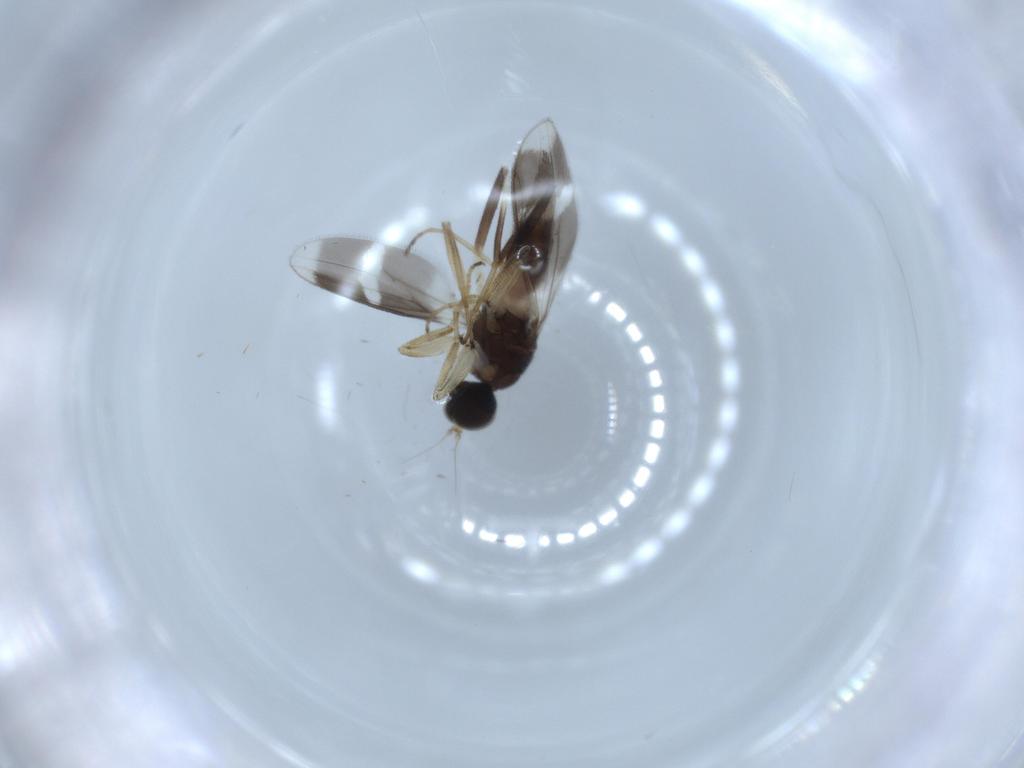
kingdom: Animalia
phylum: Arthropoda
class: Insecta
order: Diptera
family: Hybotidae
